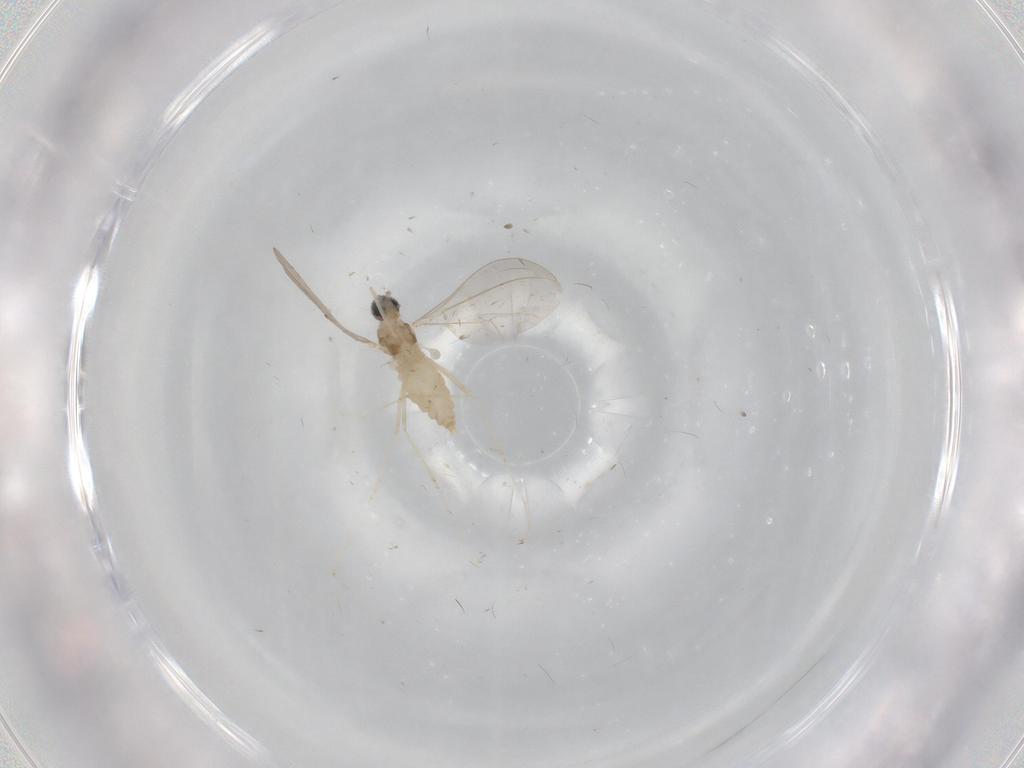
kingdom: Animalia
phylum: Arthropoda
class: Insecta
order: Diptera
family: Cecidomyiidae
